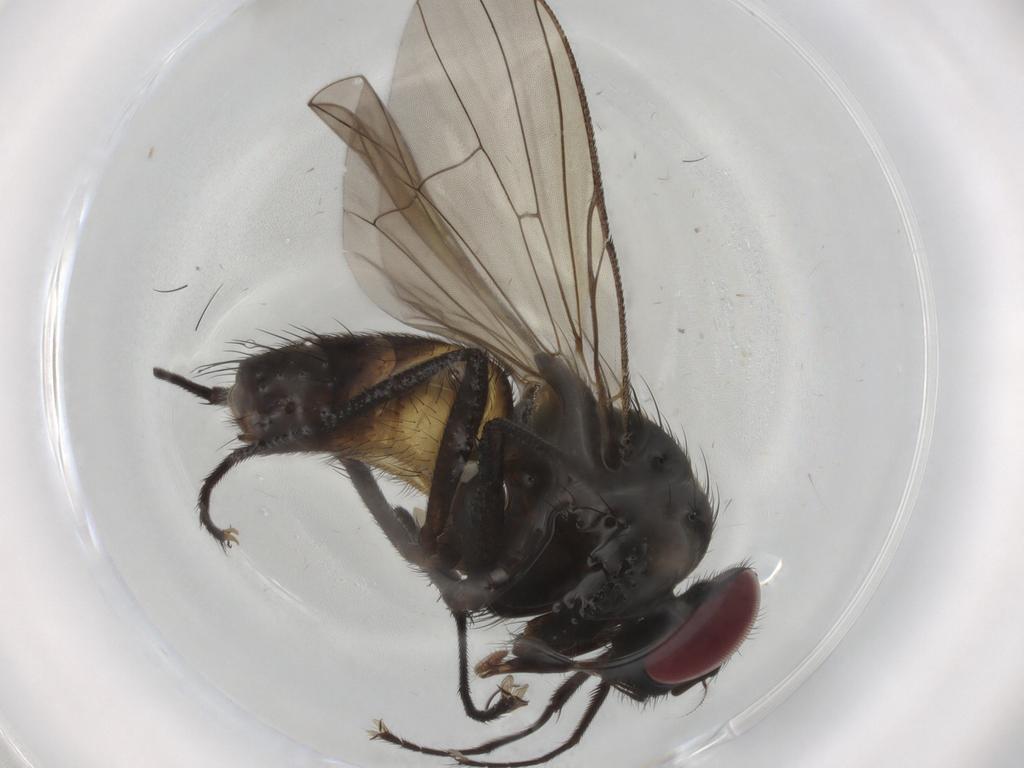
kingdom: Animalia
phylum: Arthropoda
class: Insecta
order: Diptera
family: Muscidae
